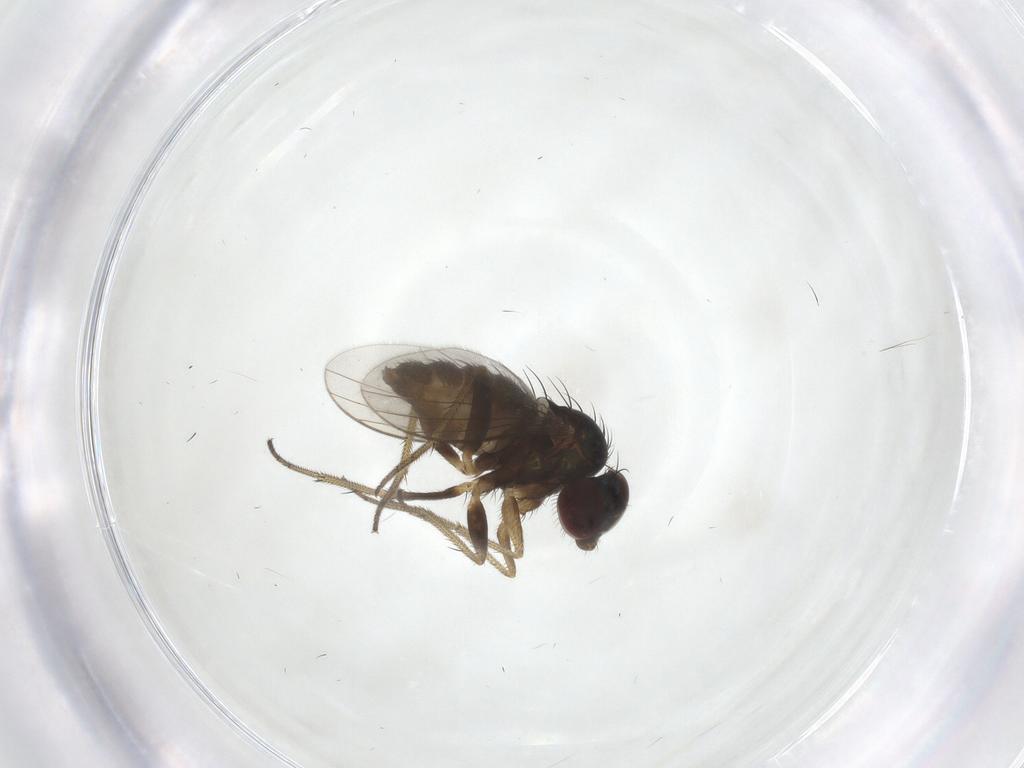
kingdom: Animalia
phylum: Arthropoda
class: Insecta
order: Diptera
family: Chironomidae
